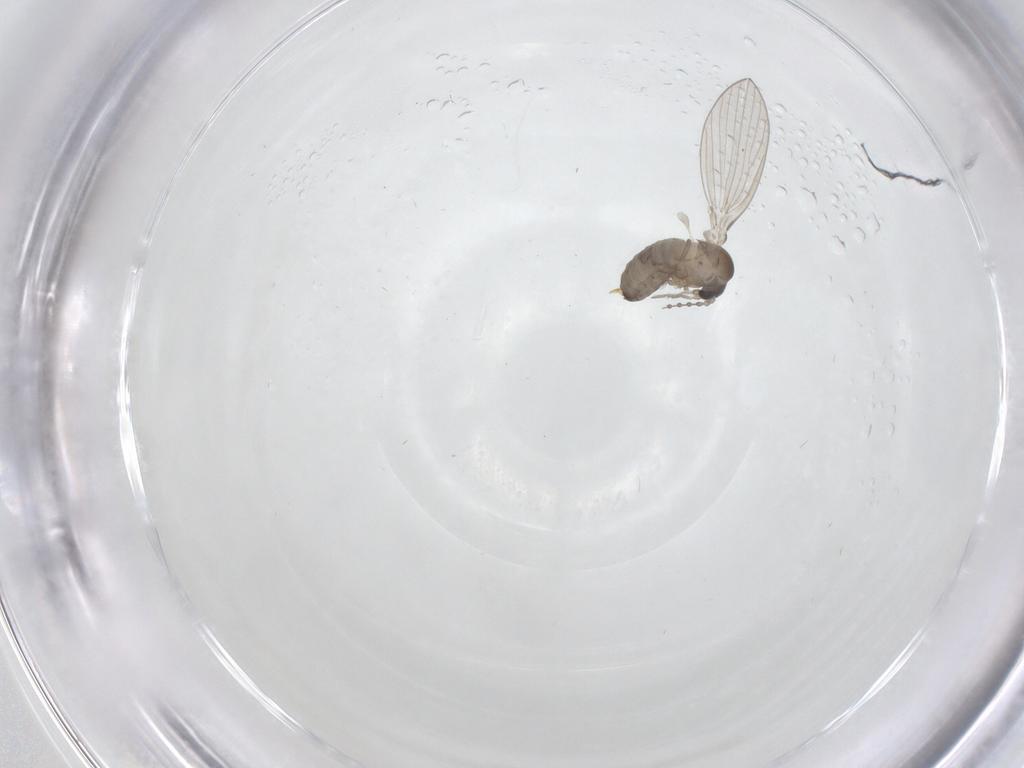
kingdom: Animalia
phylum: Arthropoda
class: Insecta
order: Diptera
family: Psychodidae
